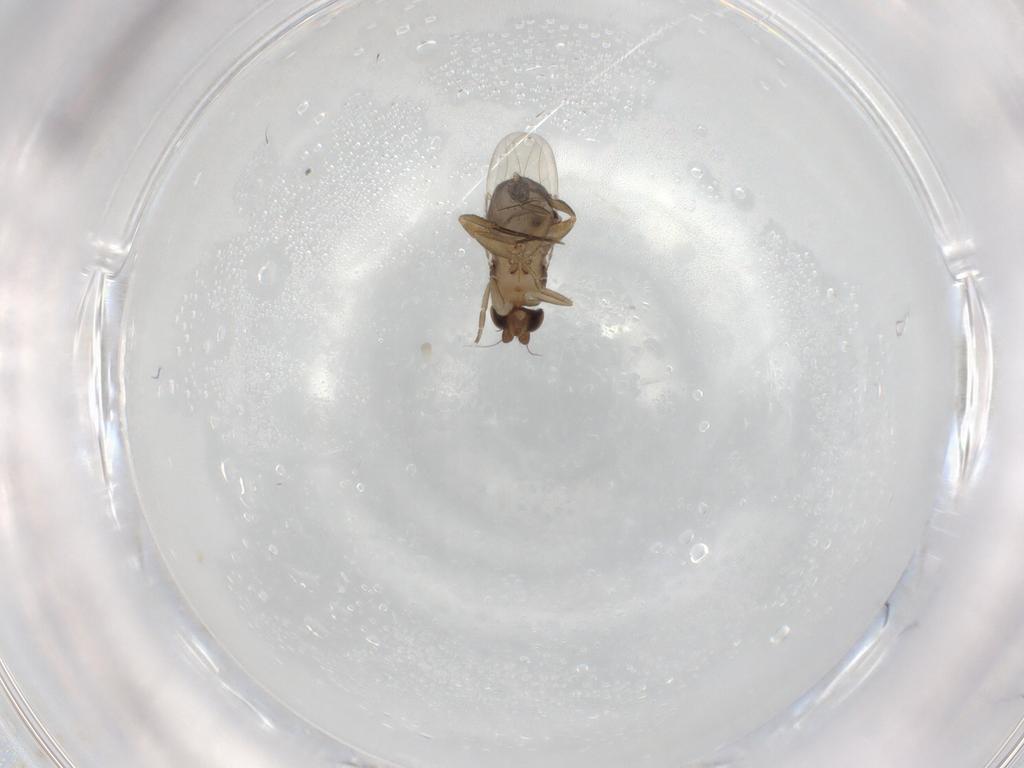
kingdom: Animalia
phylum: Arthropoda
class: Insecta
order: Diptera
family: Phoridae
